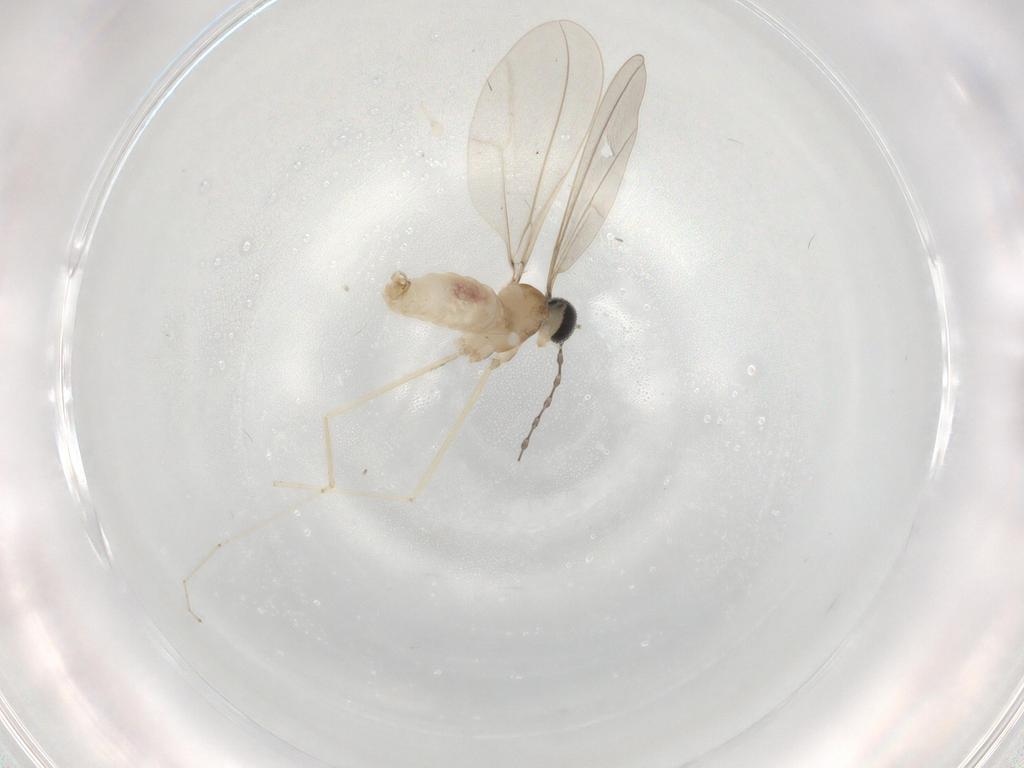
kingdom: Animalia
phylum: Arthropoda
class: Insecta
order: Diptera
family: Cecidomyiidae
